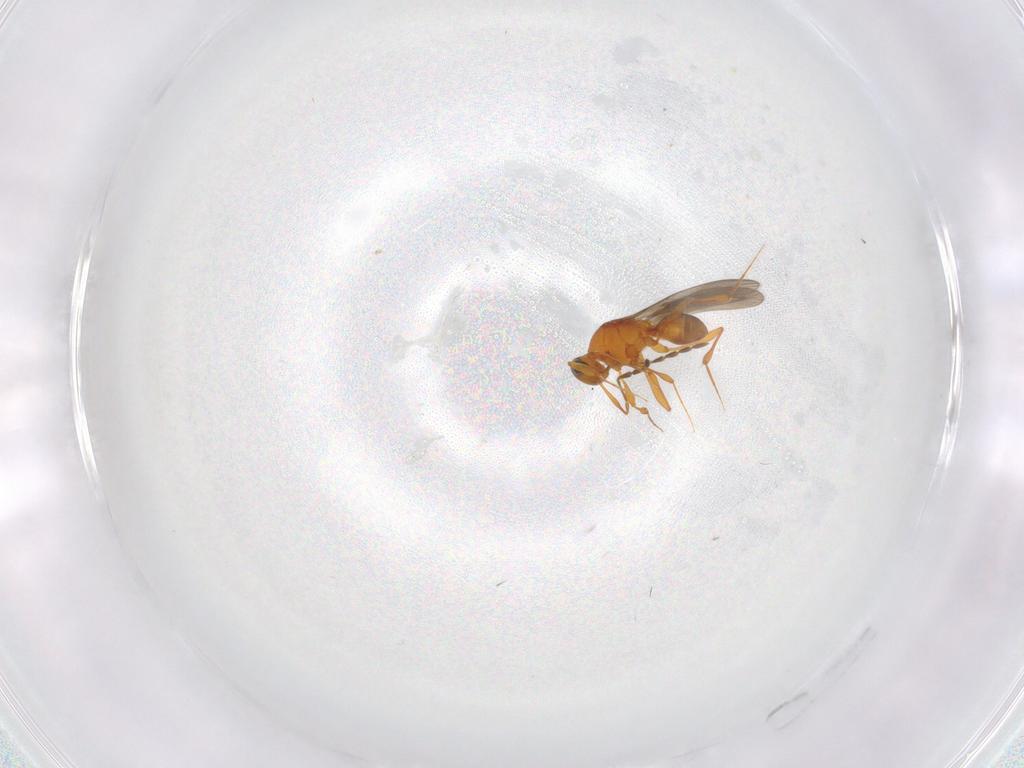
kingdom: Animalia
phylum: Arthropoda
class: Insecta
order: Hymenoptera
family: Platygastridae
